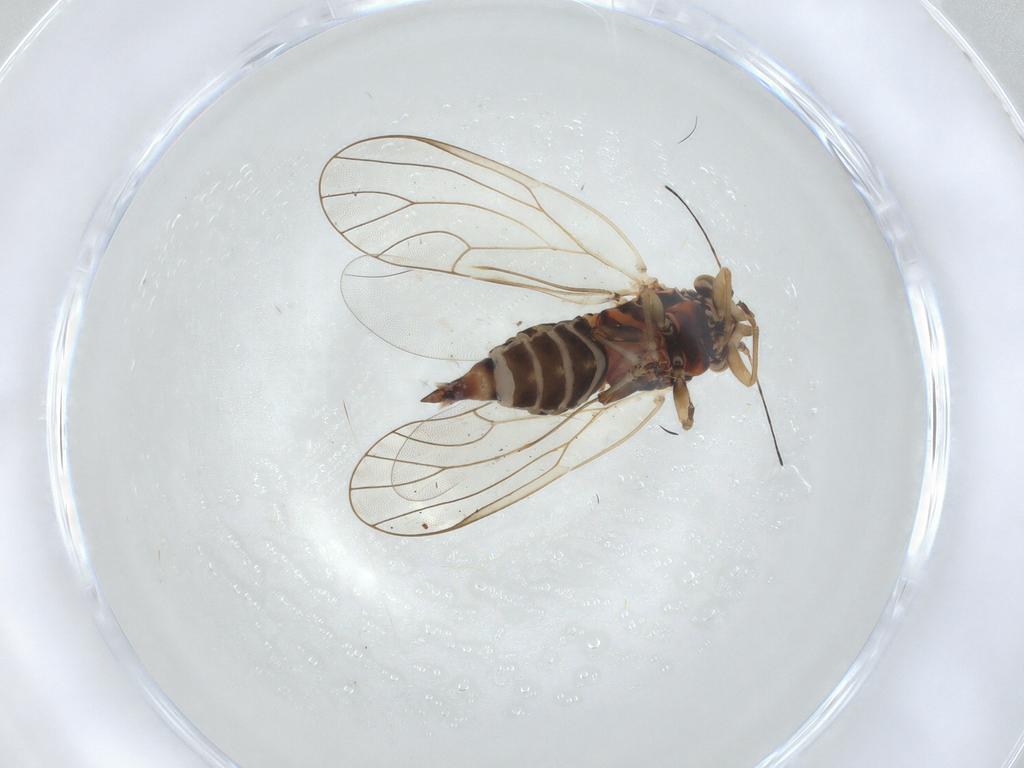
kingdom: Animalia
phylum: Arthropoda
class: Insecta
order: Hemiptera
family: Psyllidae
